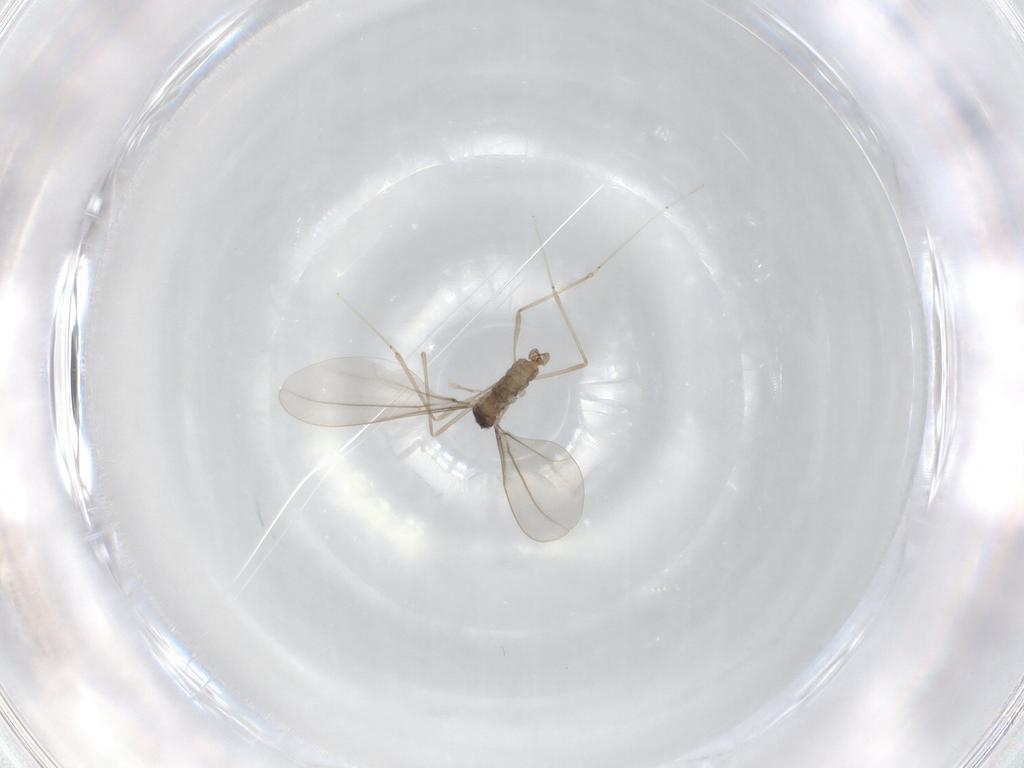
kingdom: Animalia
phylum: Arthropoda
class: Insecta
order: Diptera
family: Cecidomyiidae
